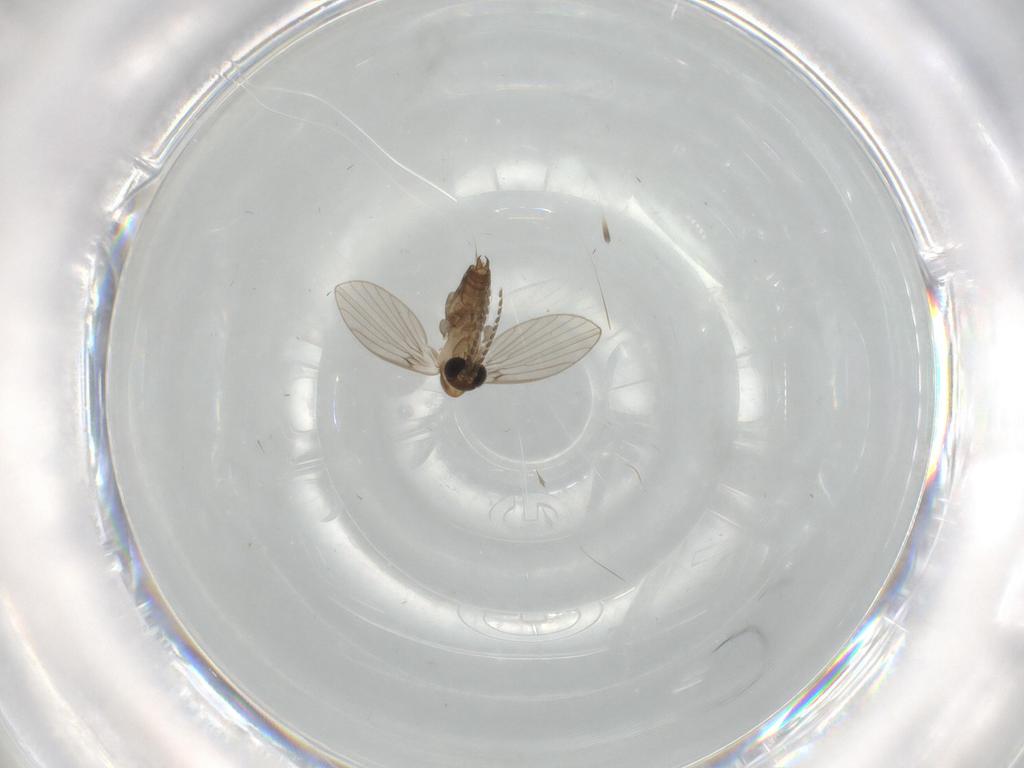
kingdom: Animalia
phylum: Arthropoda
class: Insecta
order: Diptera
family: Psychodidae
